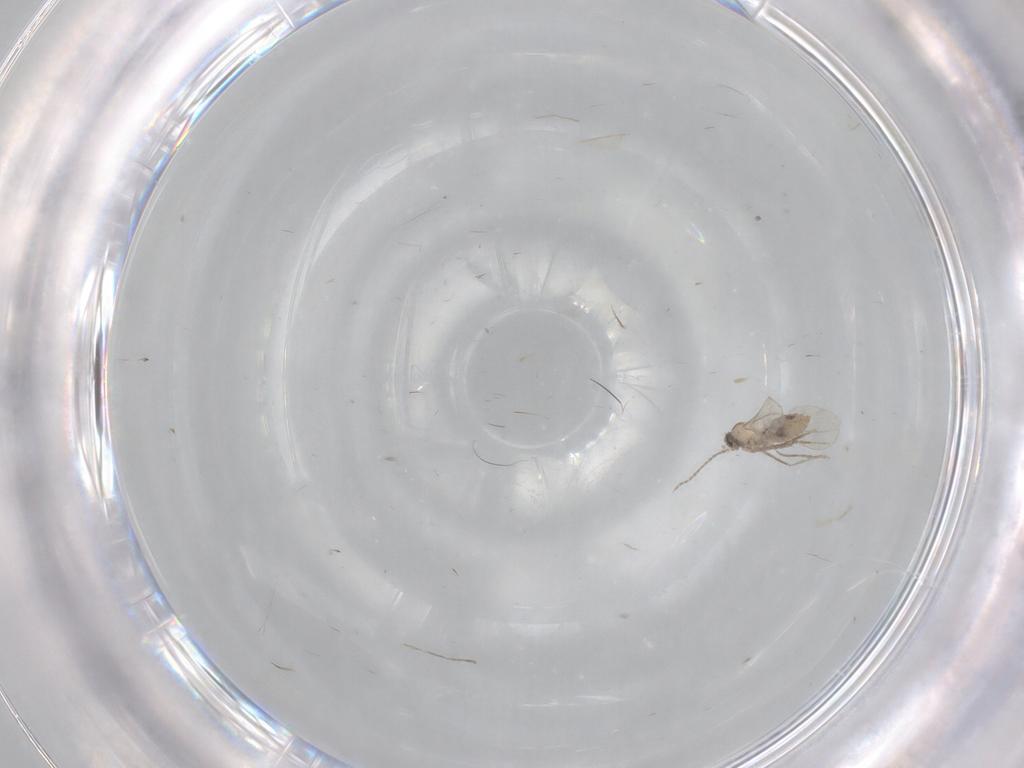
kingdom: Animalia
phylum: Arthropoda
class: Insecta
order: Diptera
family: Cecidomyiidae
